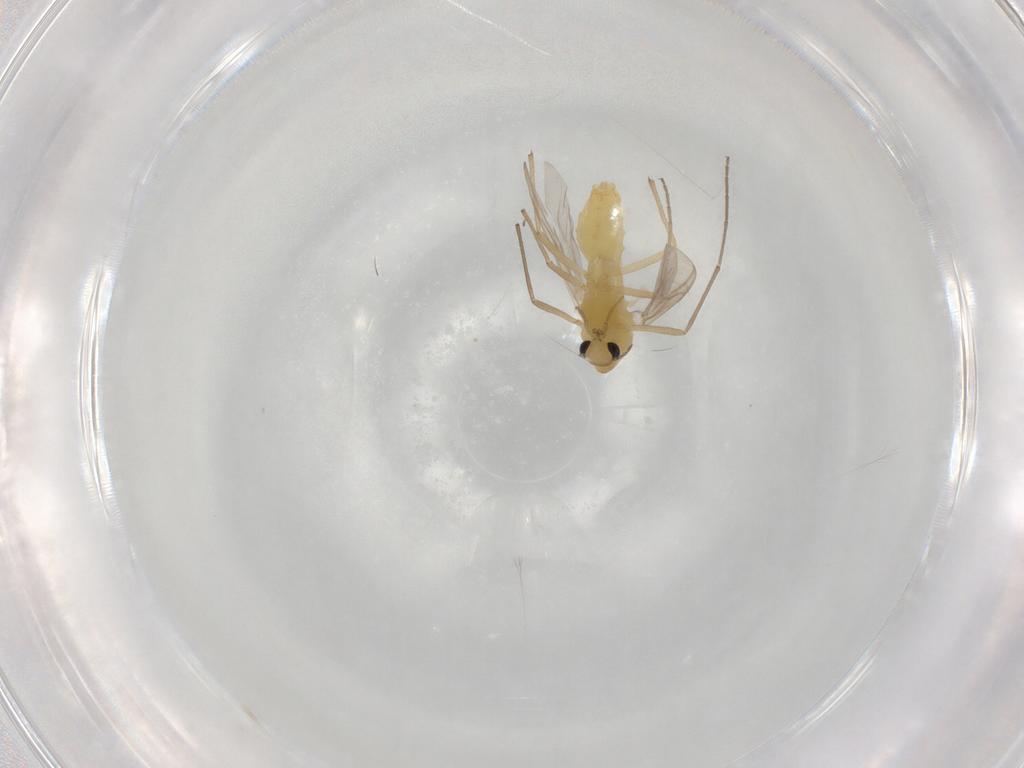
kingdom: Animalia
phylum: Arthropoda
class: Insecta
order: Diptera
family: Chironomidae
